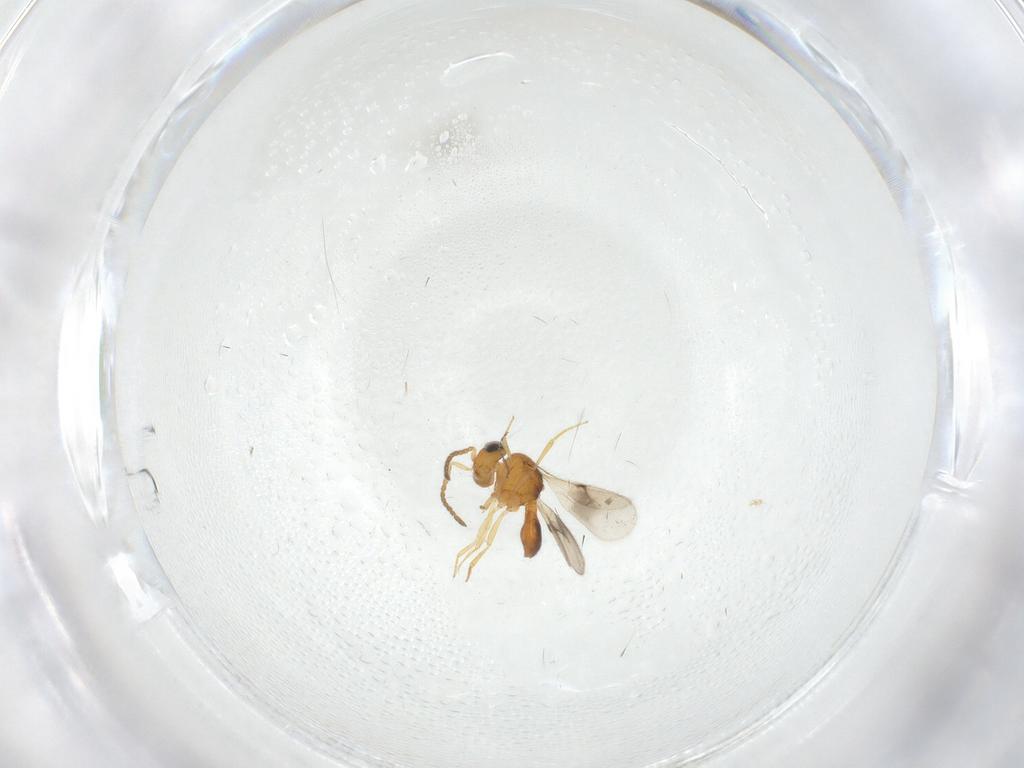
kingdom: Animalia
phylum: Arthropoda
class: Insecta
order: Hymenoptera
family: Scelionidae
